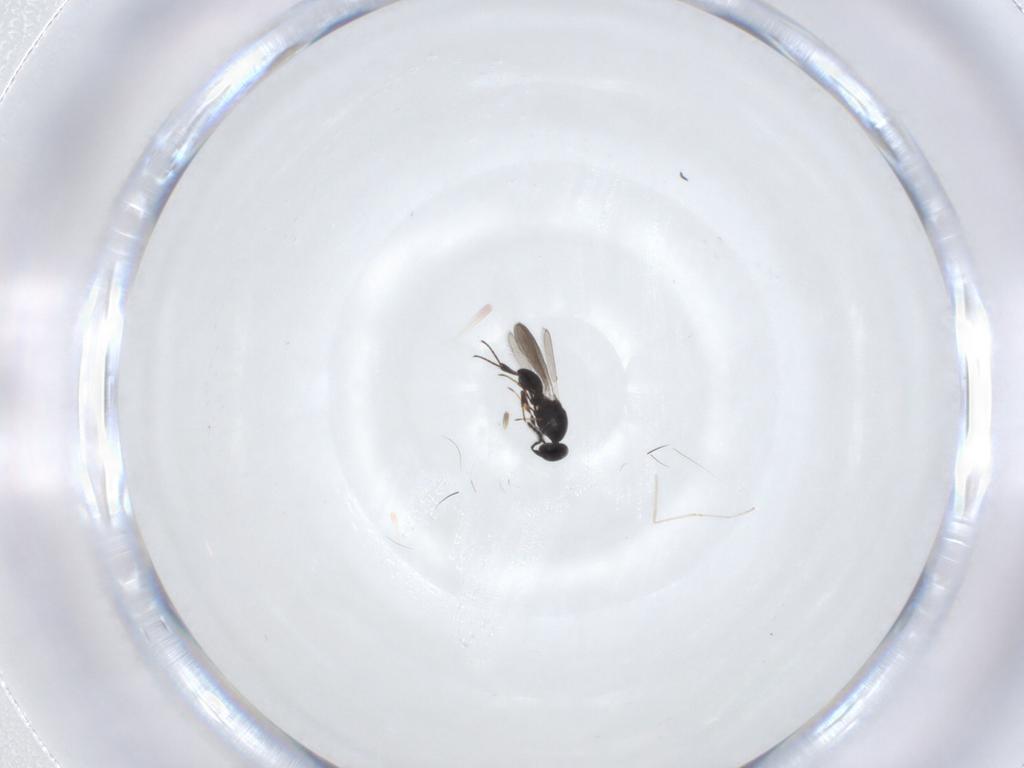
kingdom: Animalia
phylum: Arthropoda
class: Insecta
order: Hymenoptera
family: Platygastridae
